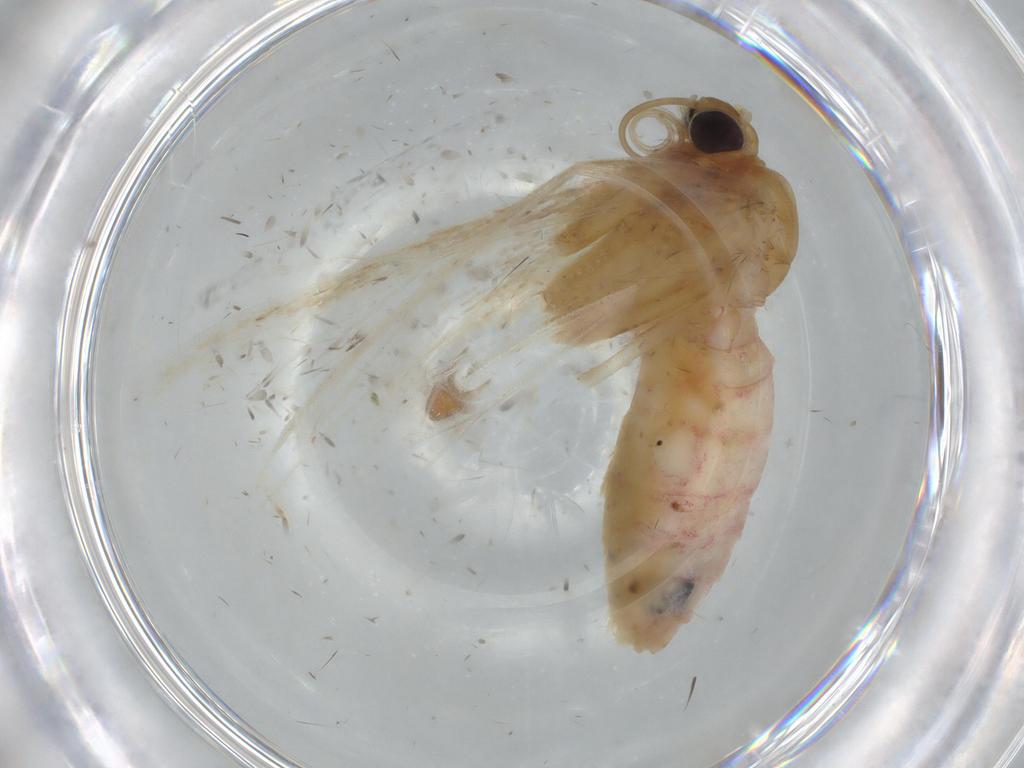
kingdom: Animalia
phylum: Arthropoda
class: Insecta
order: Lepidoptera
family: Geometridae
